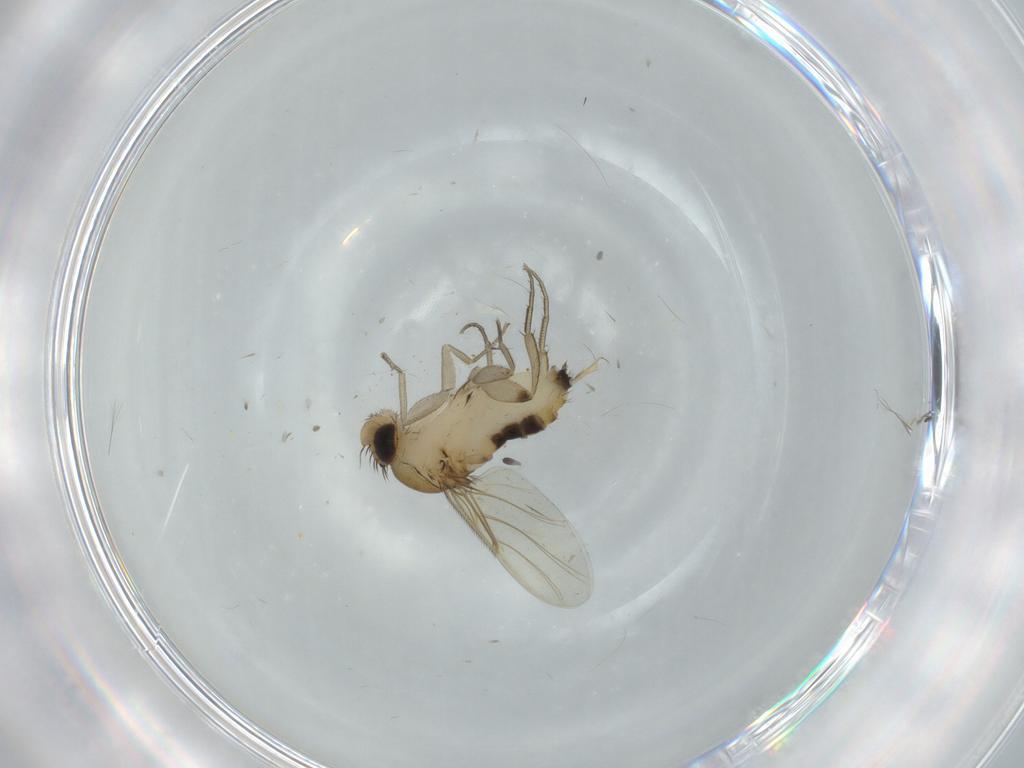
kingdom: Animalia
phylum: Arthropoda
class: Insecta
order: Diptera
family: Phoridae
